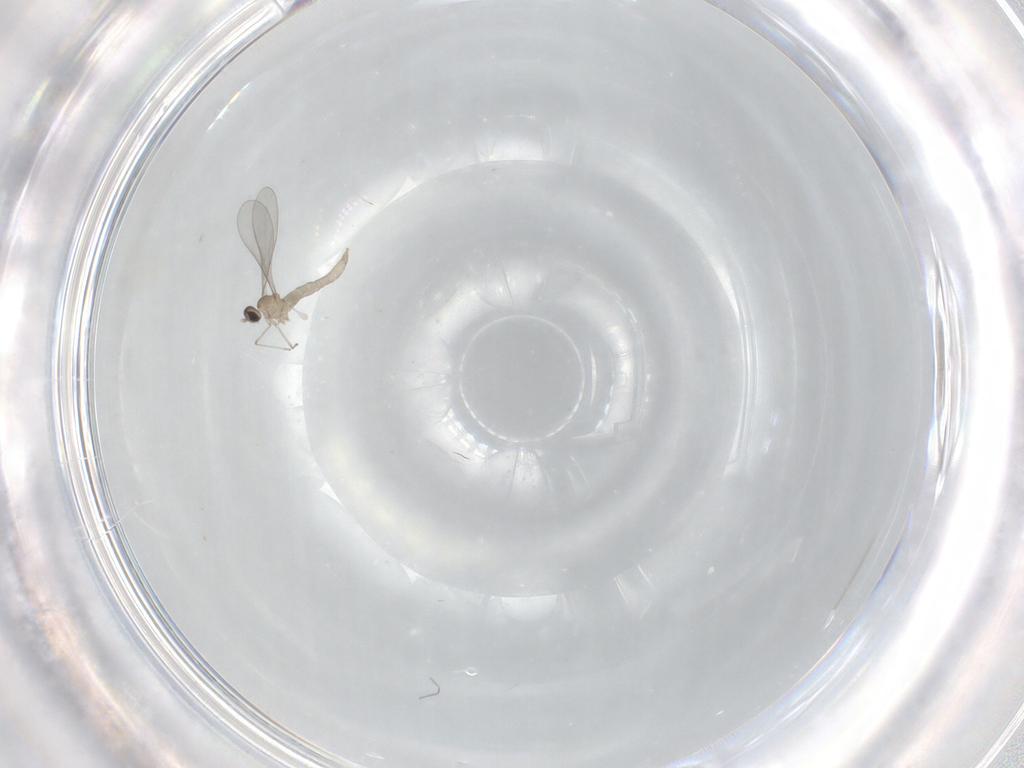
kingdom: Animalia
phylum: Arthropoda
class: Insecta
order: Diptera
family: Cecidomyiidae
